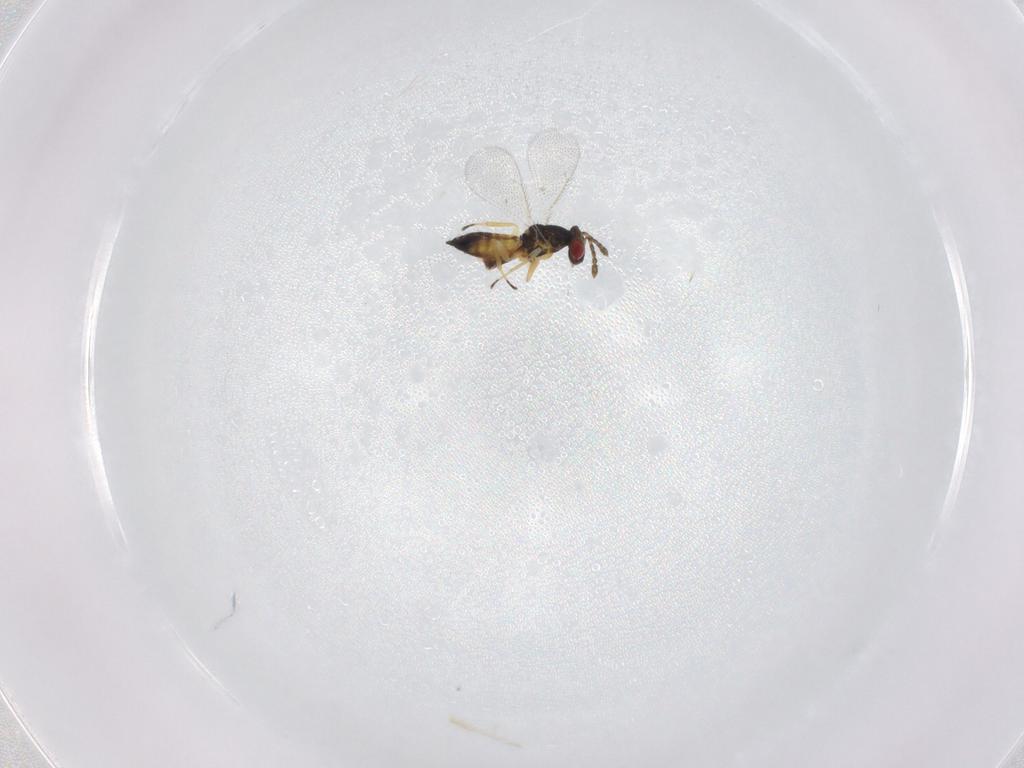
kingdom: Animalia
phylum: Arthropoda
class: Insecta
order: Hymenoptera
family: Eulophidae
